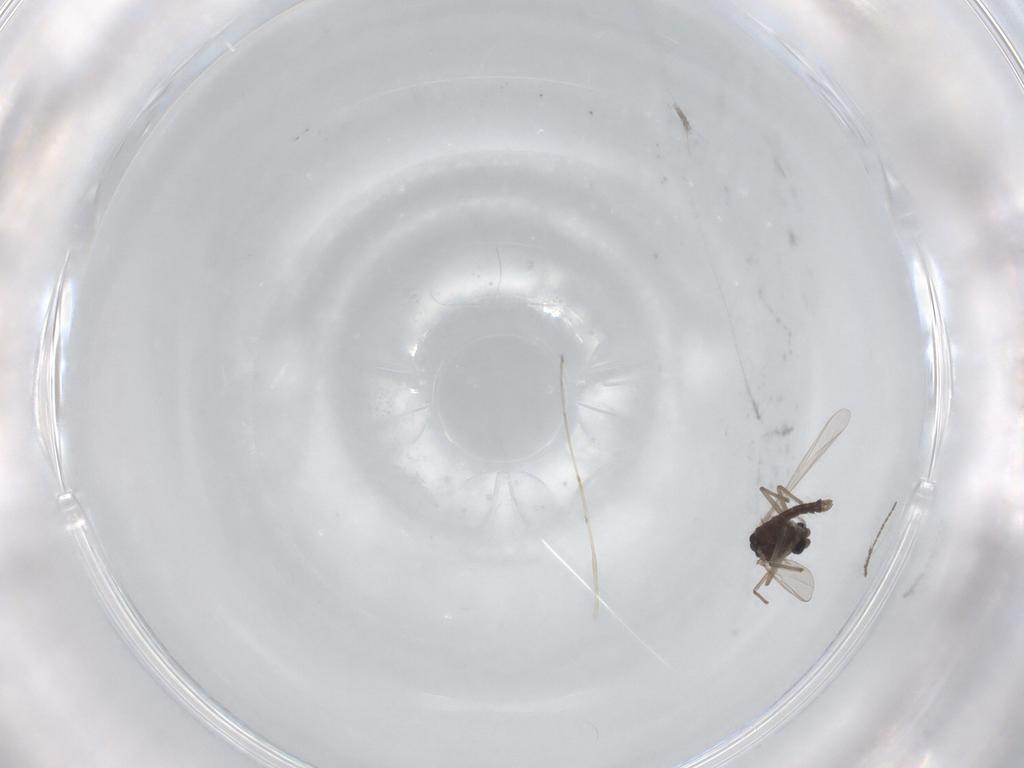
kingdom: Animalia
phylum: Arthropoda
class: Insecta
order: Diptera
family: Chironomidae
